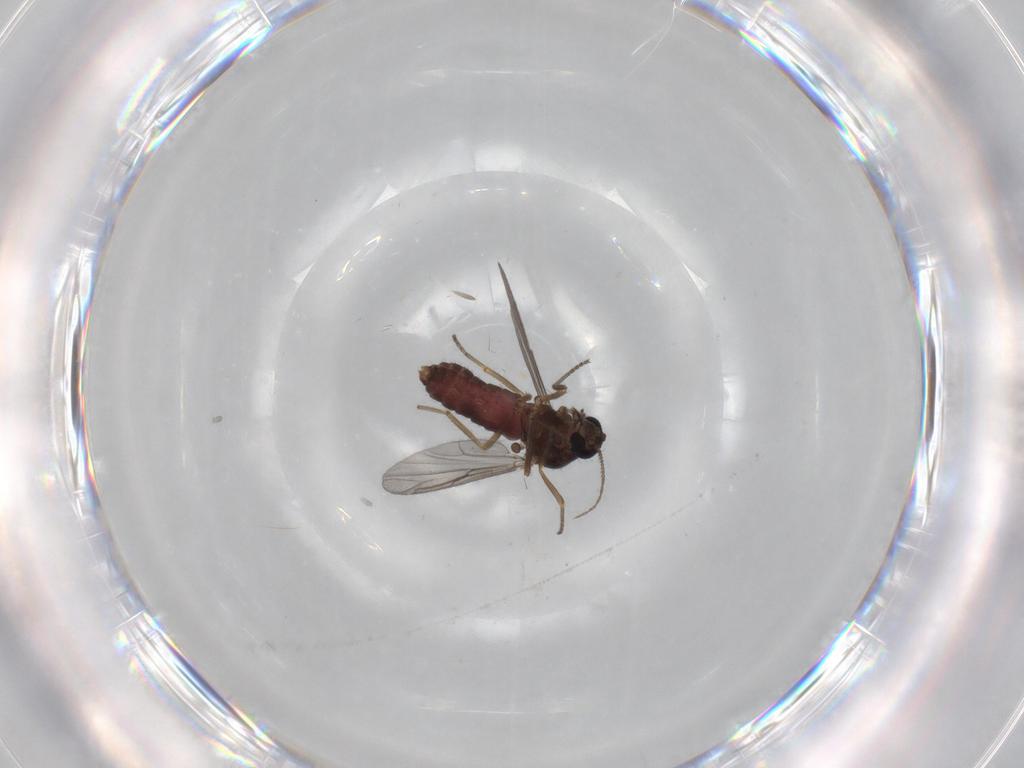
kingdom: Animalia
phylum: Arthropoda
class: Insecta
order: Diptera
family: Ceratopogonidae
